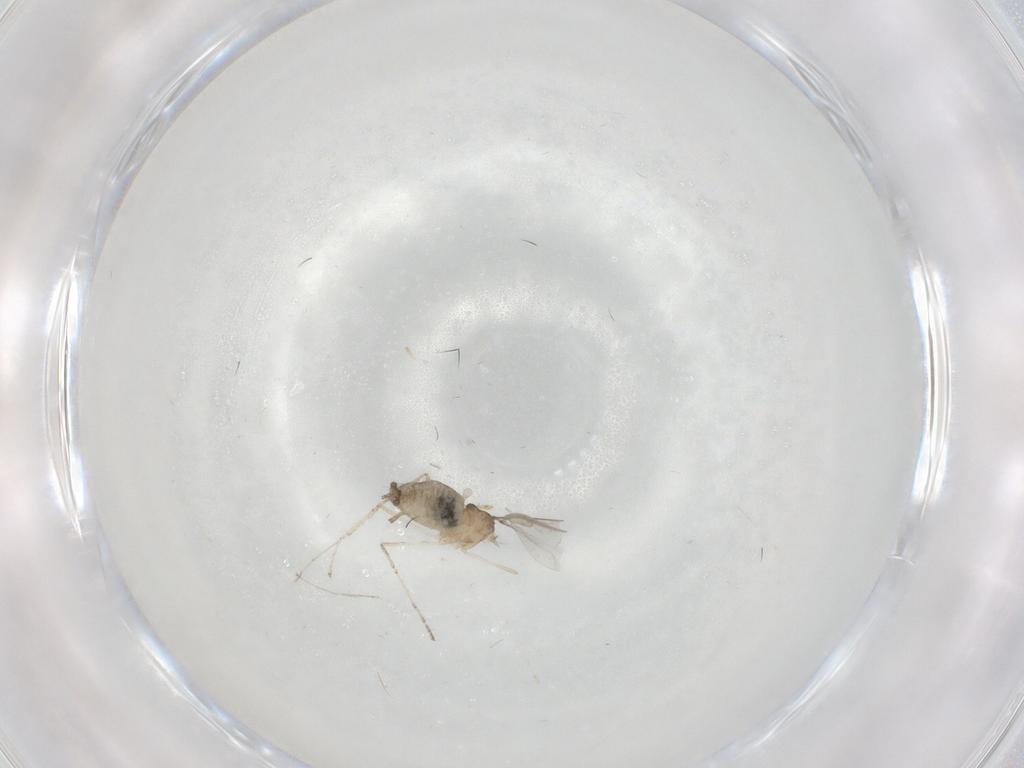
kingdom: Animalia
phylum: Arthropoda
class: Insecta
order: Diptera
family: Cecidomyiidae
